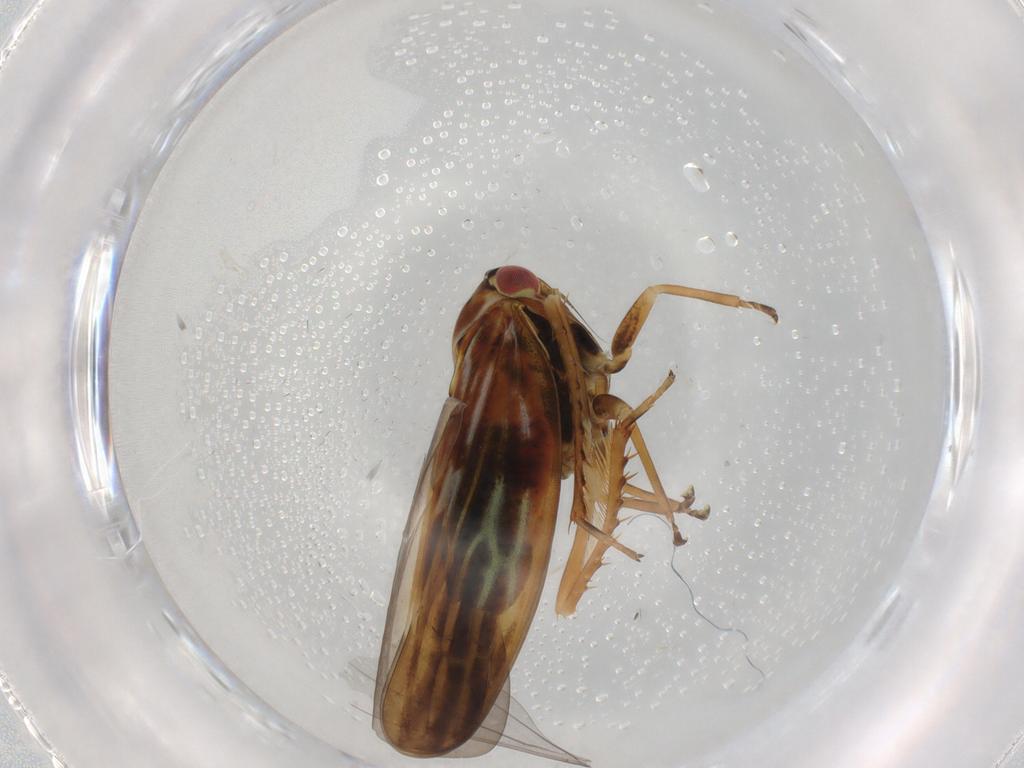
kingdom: Animalia
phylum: Arthropoda
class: Insecta
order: Hemiptera
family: Cicadellidae
